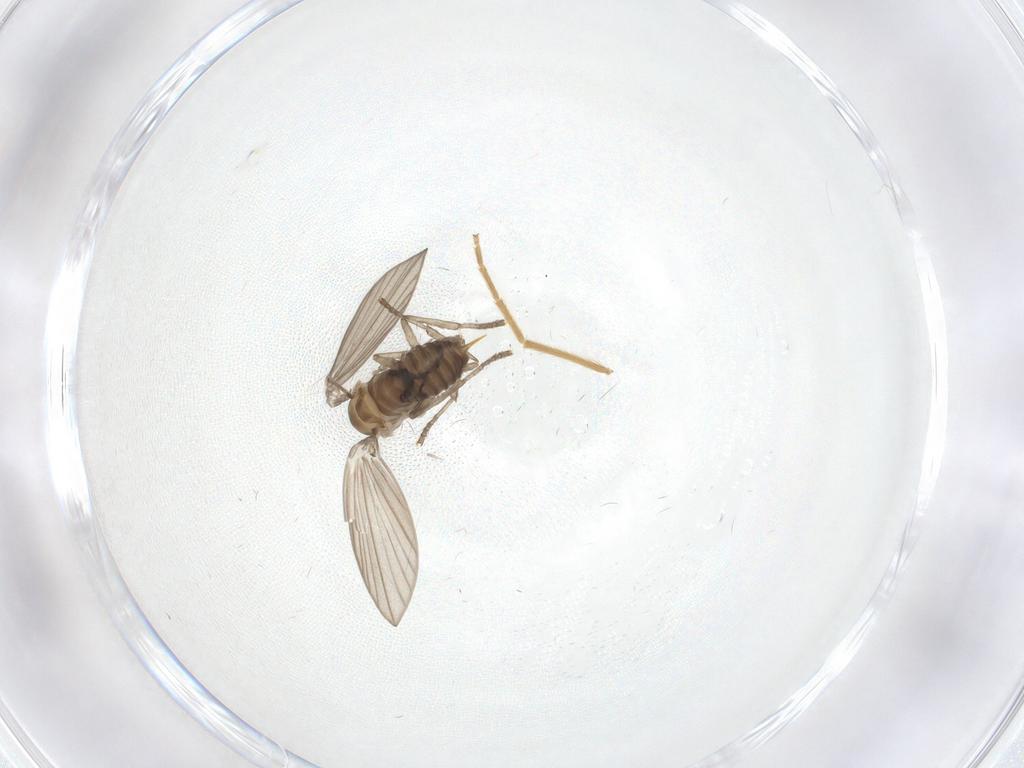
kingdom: Animalia
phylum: Arthropoda
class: Insecta
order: Diptera
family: Psychodidae
